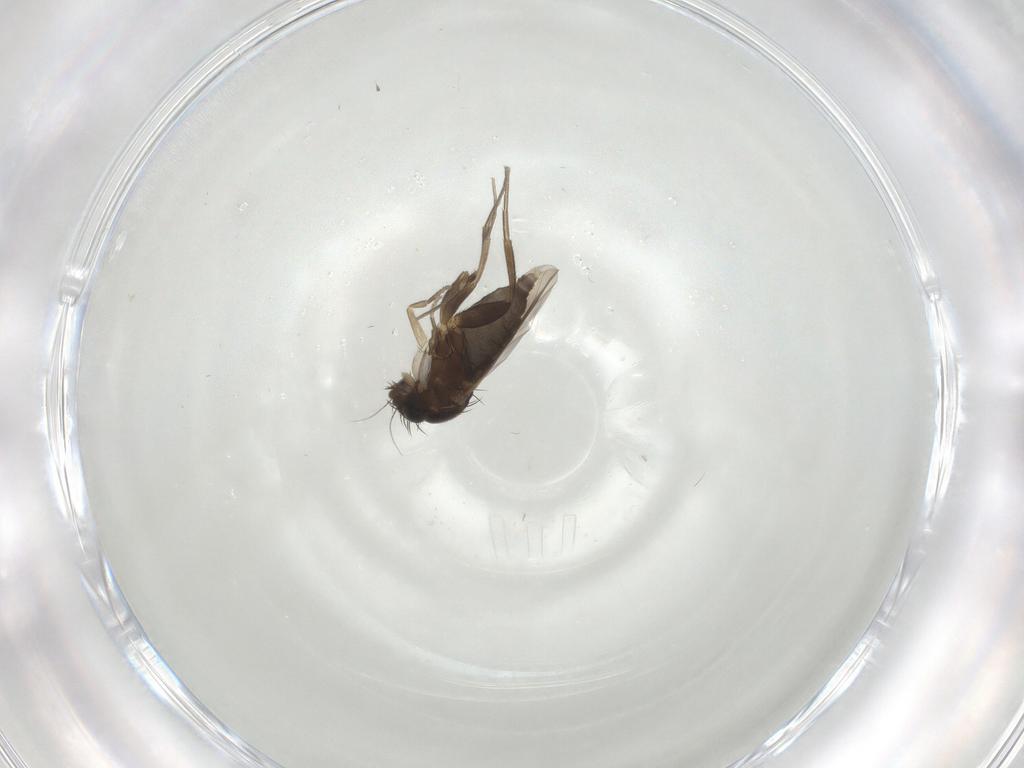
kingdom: Animalia
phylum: Arthropoda
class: Insecta
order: Diptera
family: Phoridae
